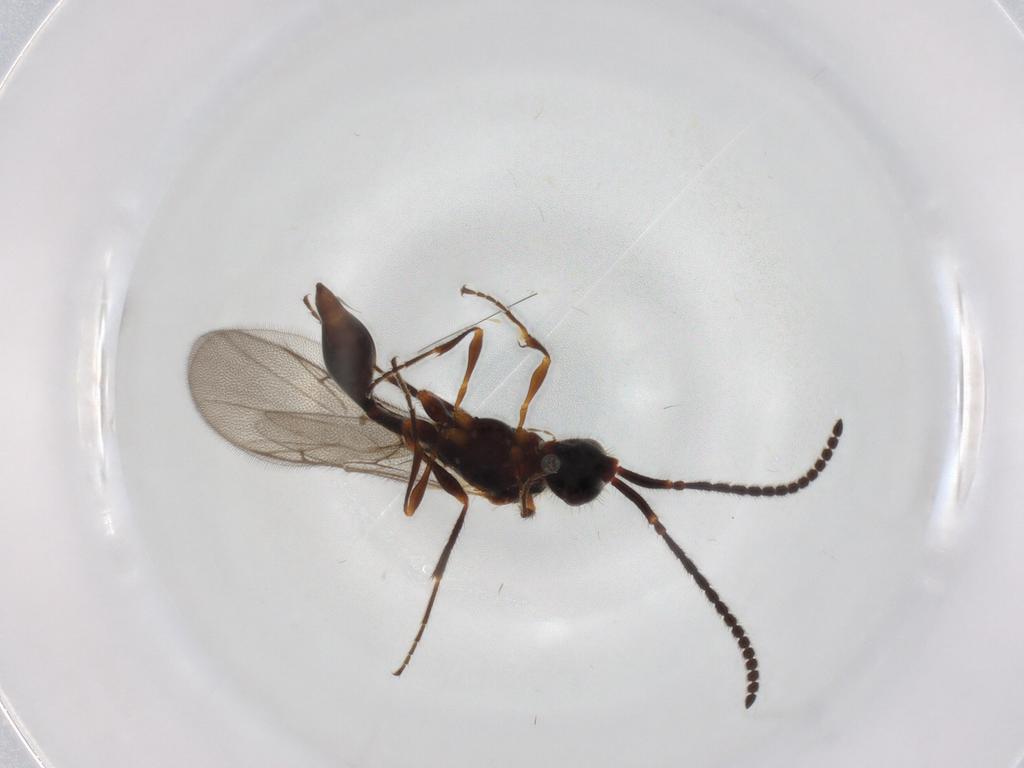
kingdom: Animalia
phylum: Arthropoda
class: Insecta
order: Hymenoptera
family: Diapriidae
